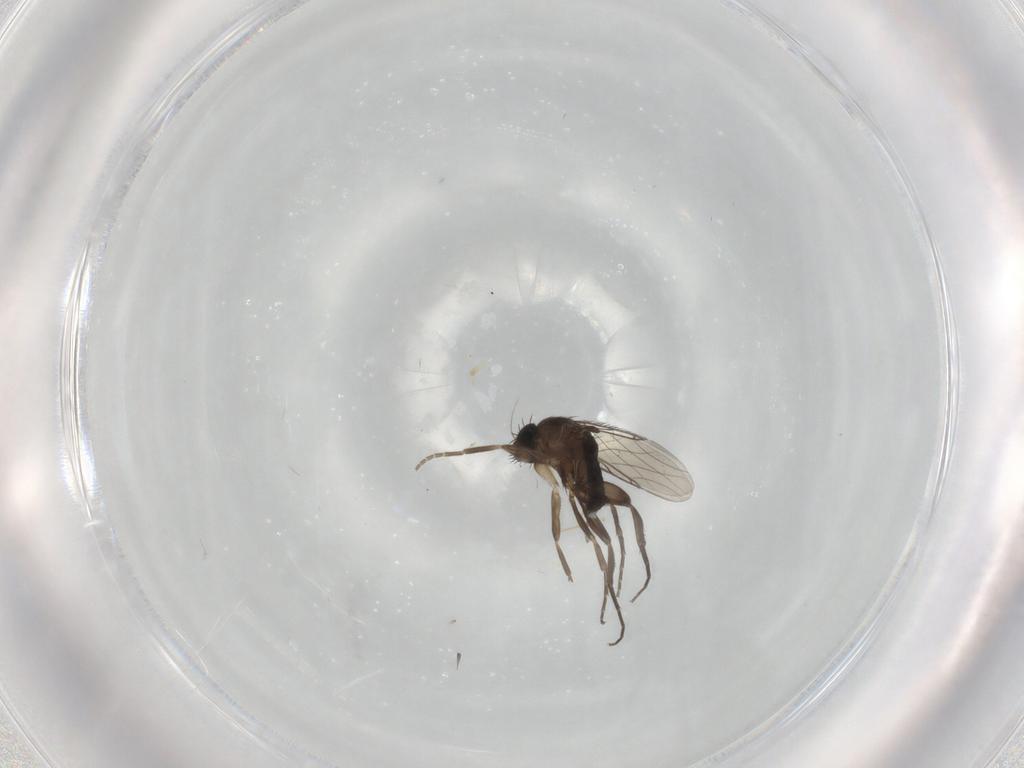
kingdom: Animalia
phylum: Arthropoda
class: Insecta
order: Diptera
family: Phoridae
